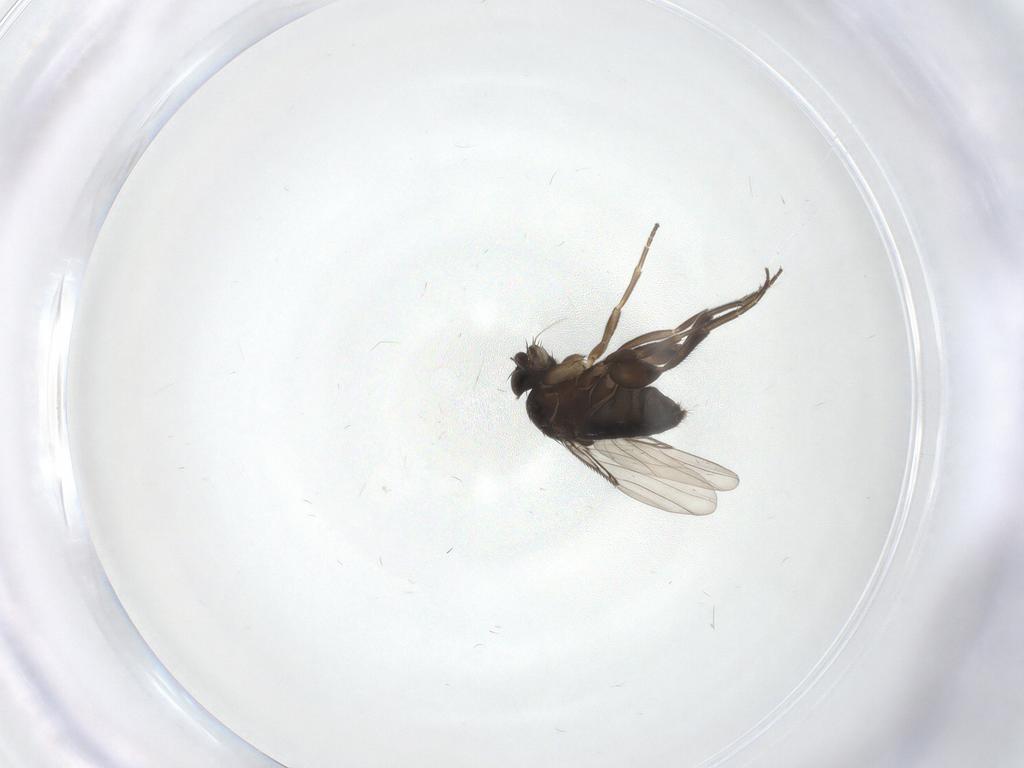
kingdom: Animalia
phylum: Arthropoda
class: Insecta
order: Diptera
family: Phoridae
